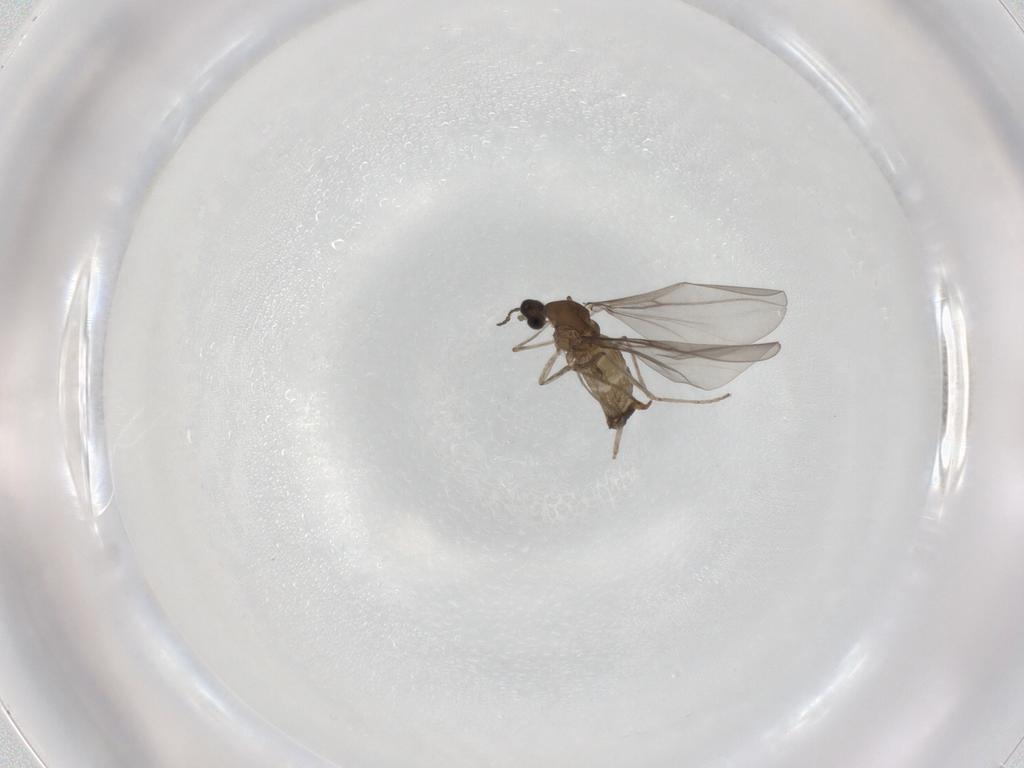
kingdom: Animalia
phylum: Arthropoda
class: Insecta
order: Diptera
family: Cecidomyiidae
